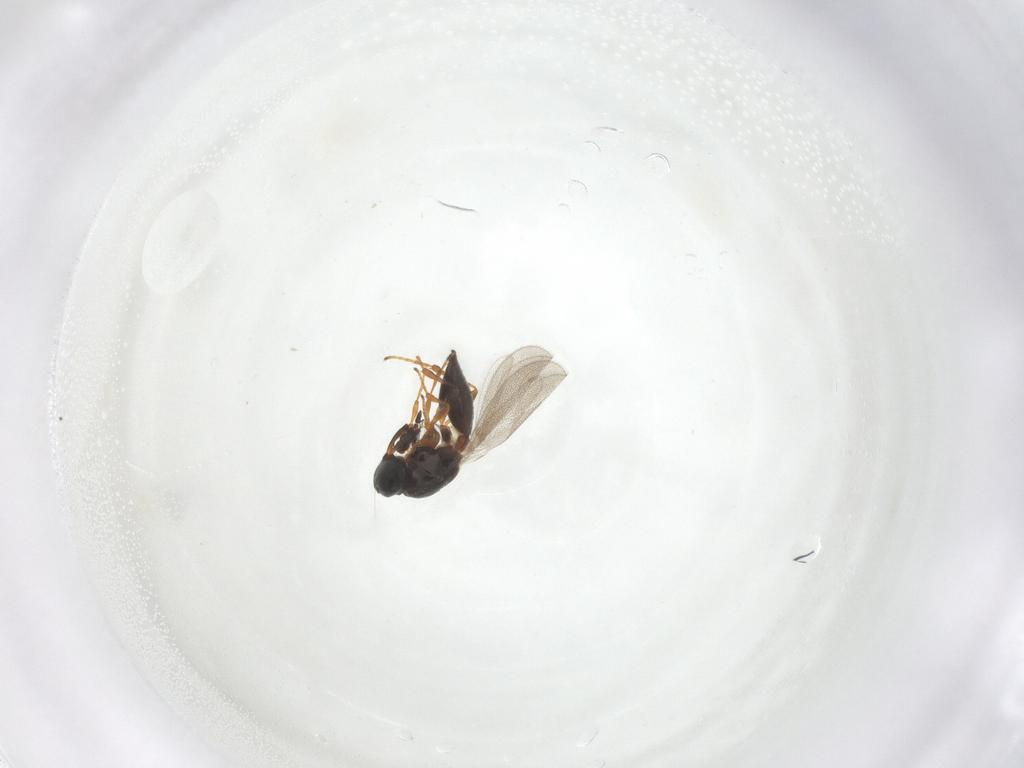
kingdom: Animalia
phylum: Arthropoda
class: Insecta
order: Hymenoptera
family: Platygastridae
